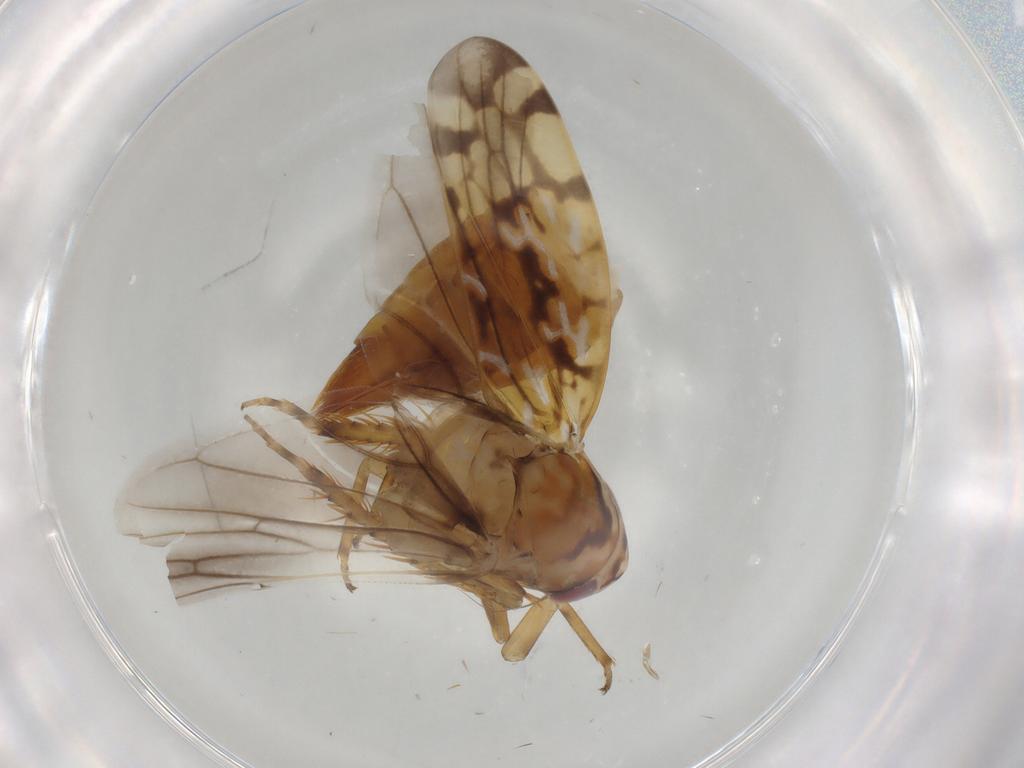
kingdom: Animalia
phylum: Arthropoda
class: Insecta
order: Hemiptera
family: Cicadellidae
